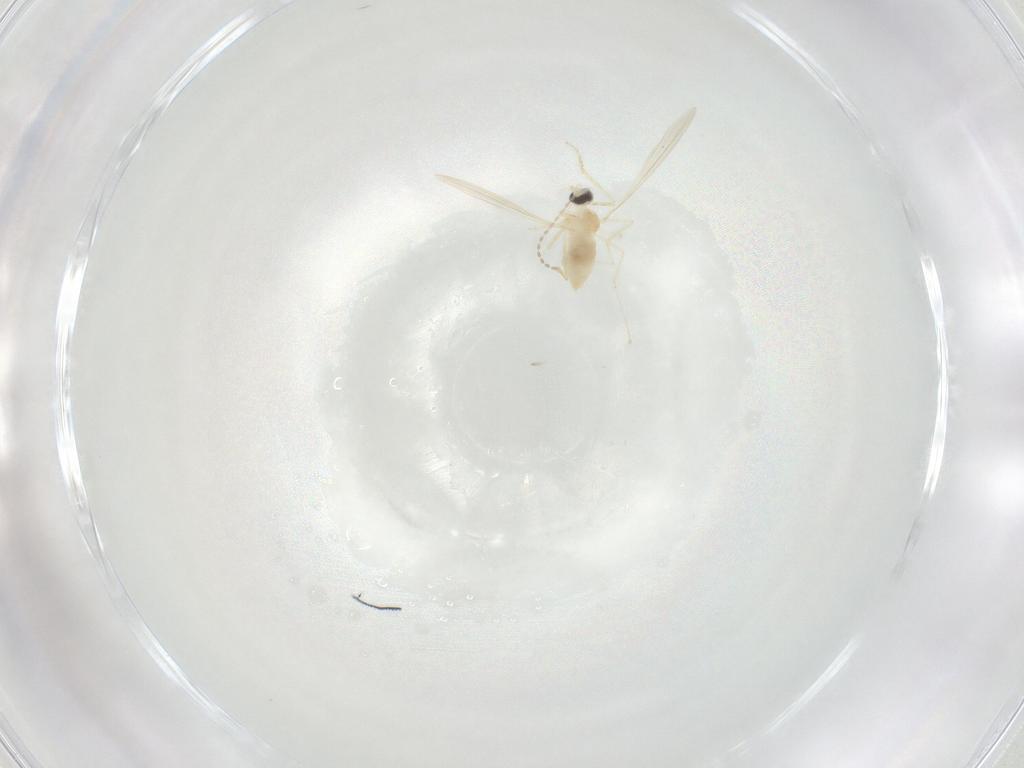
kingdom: Animalia
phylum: Arthropoda
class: Insecta
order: Diptera
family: Cecidomyiidae
